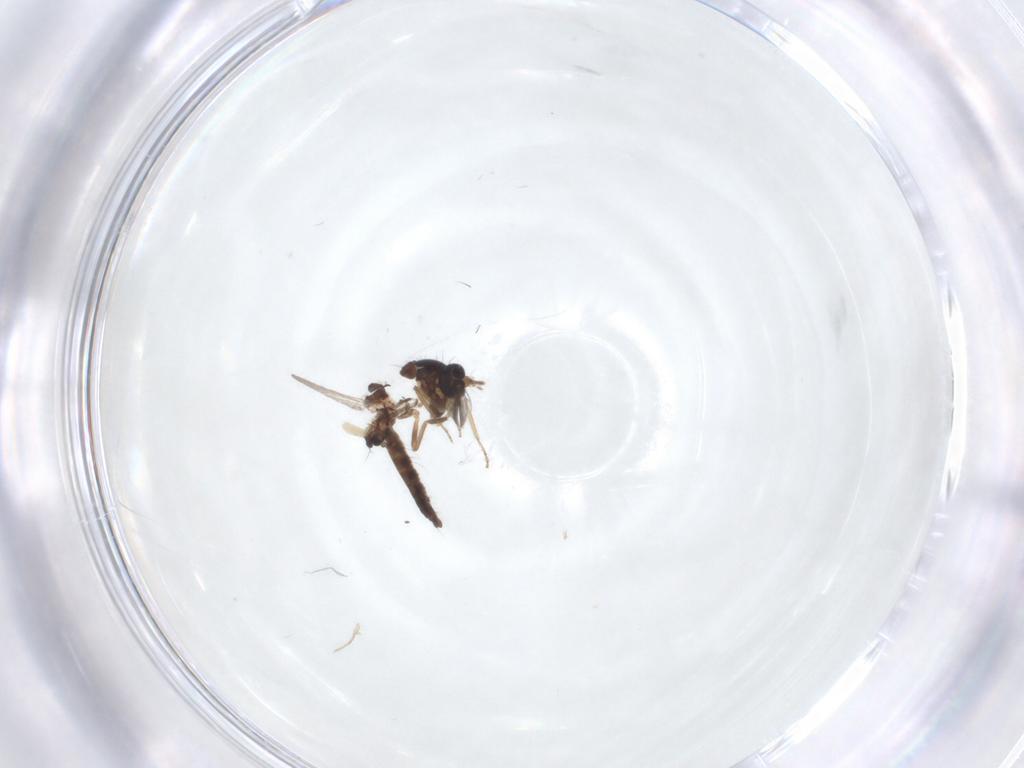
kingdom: Animalia
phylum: Arthropoda
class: Insecta
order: Diptera
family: Ceratopogonidae
